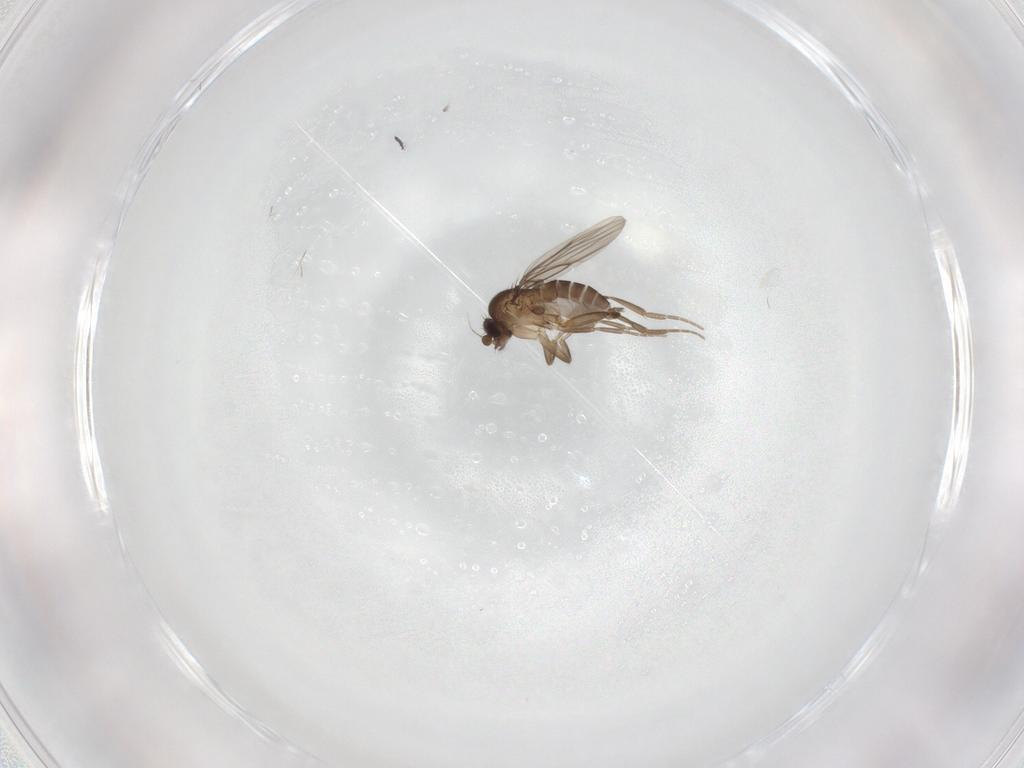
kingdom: Animalia
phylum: Arthropoda
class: Insecta
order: Diptera
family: Phoridae
